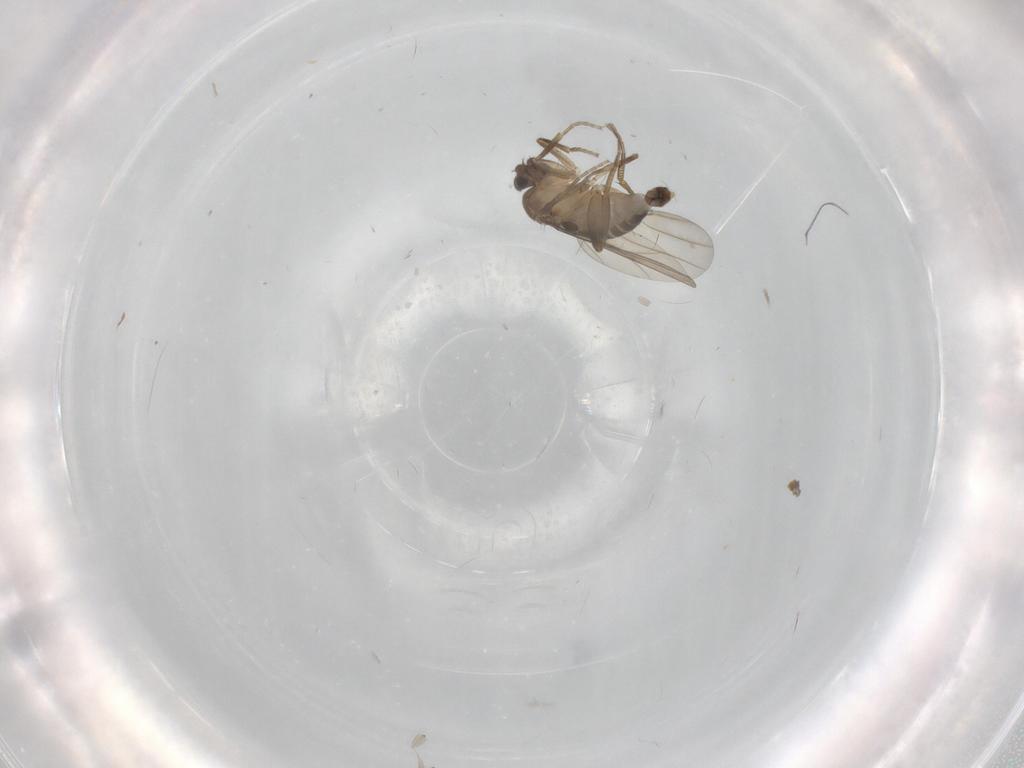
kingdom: Animalia
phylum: Arthropoda
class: Insecta
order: Diptera
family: Phoridae
